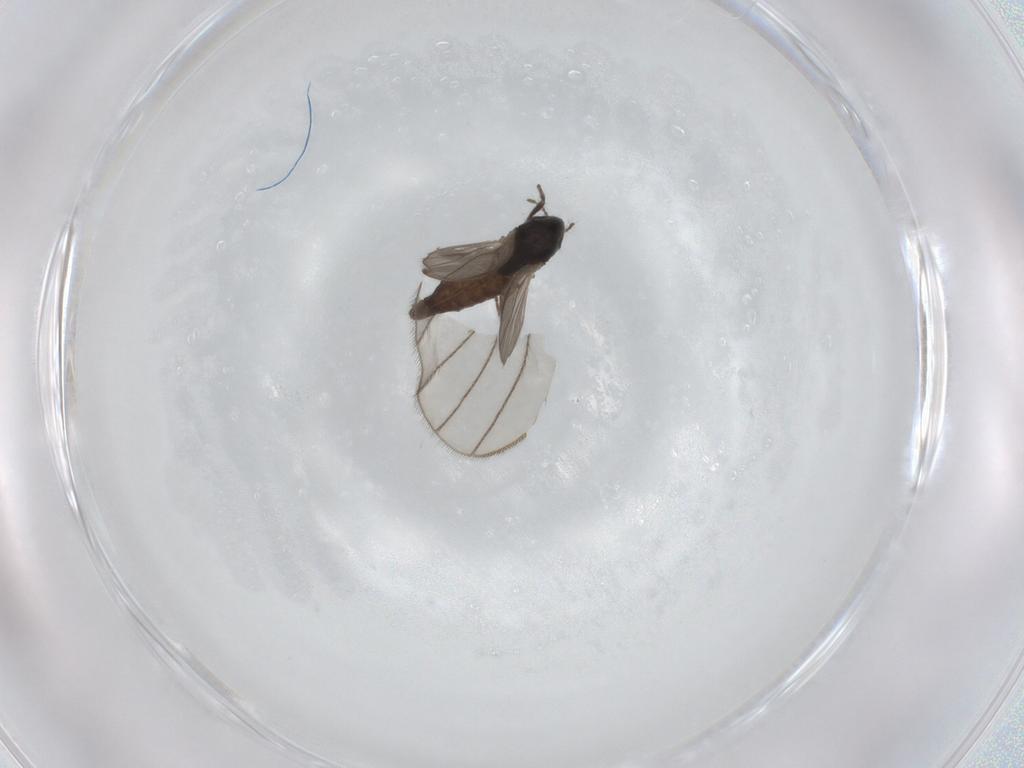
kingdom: Animalia
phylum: Arthropoda
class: Insecta
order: Diptera
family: Chironomidae
